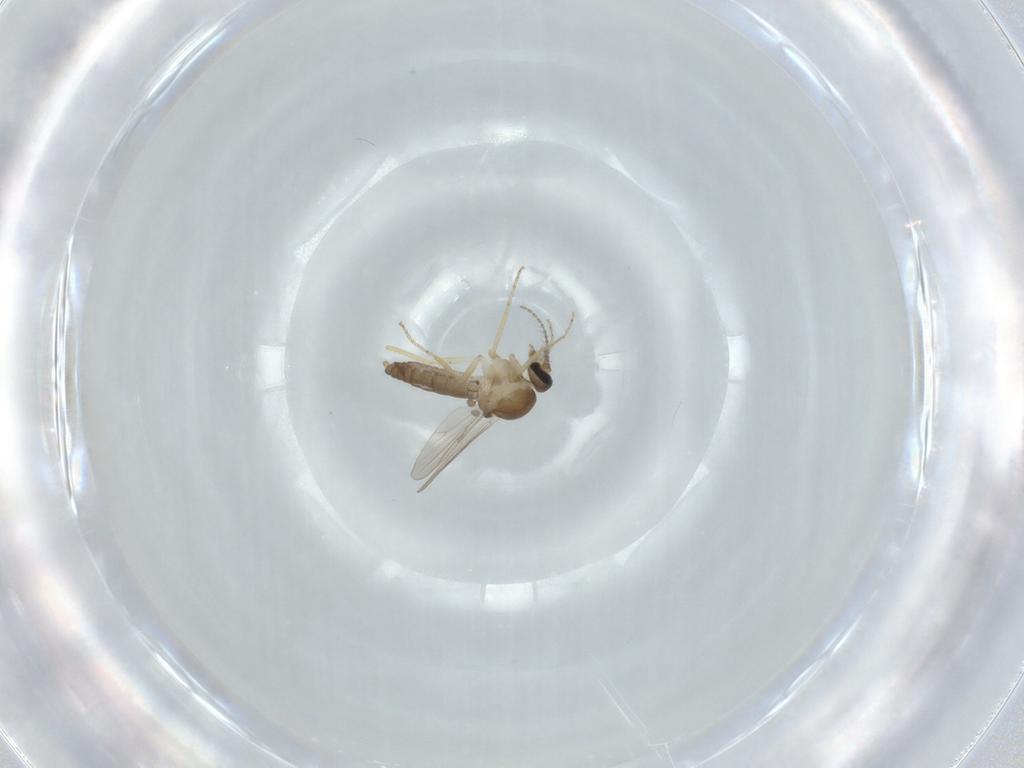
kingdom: Animalia
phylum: Arthropoda
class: Insecta
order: Diptera
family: Ceratopogonidae
